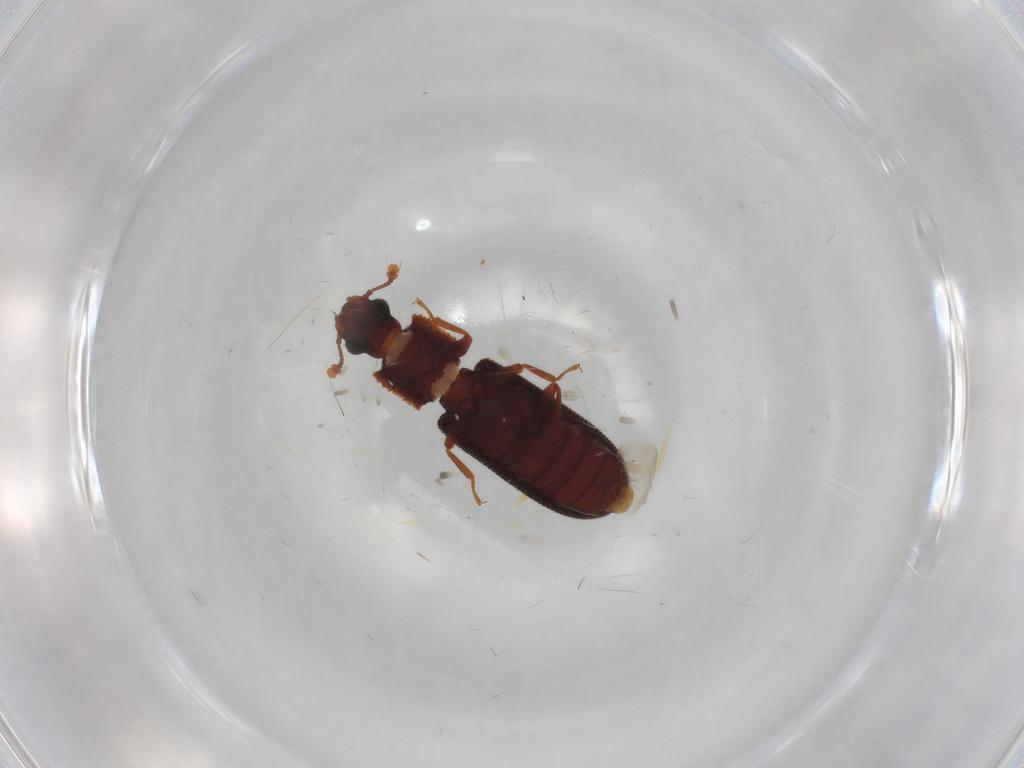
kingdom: Animalia
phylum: Arthropoda
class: Insecta
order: Coleoptera
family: Zopheridae
